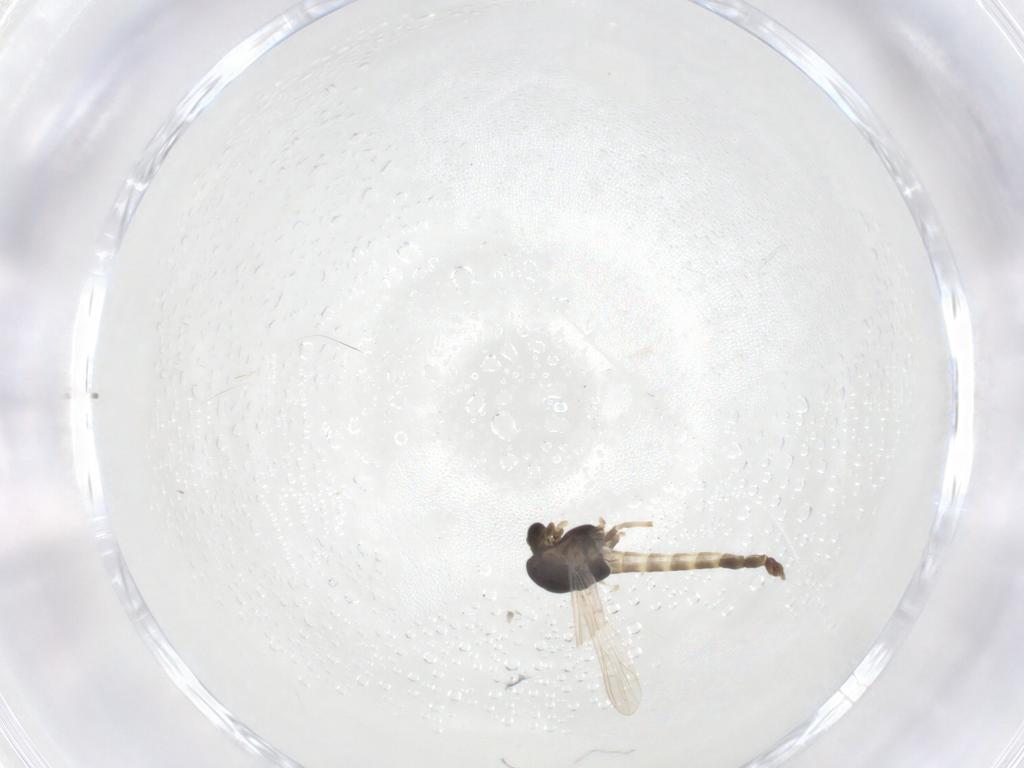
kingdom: Animalia
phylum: Arthropoda
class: Insecta
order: Diptera
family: Chironomidae
